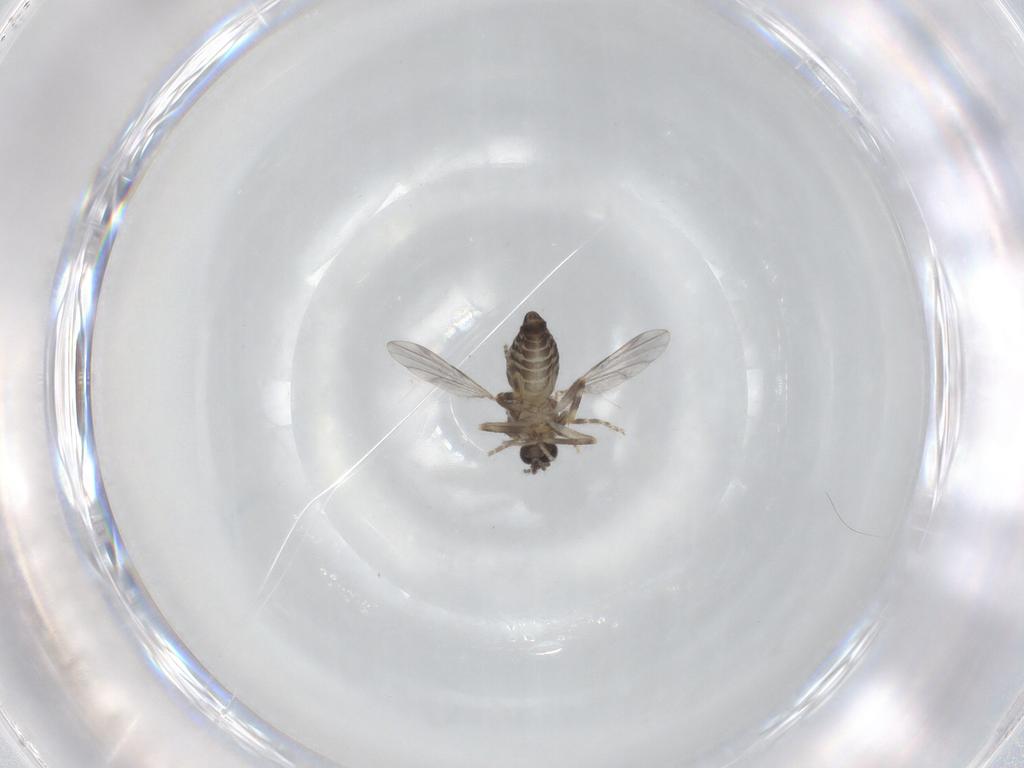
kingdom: Animalia
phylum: Arthropoda
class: Insecta
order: Diptera
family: Ceratopogonidae
